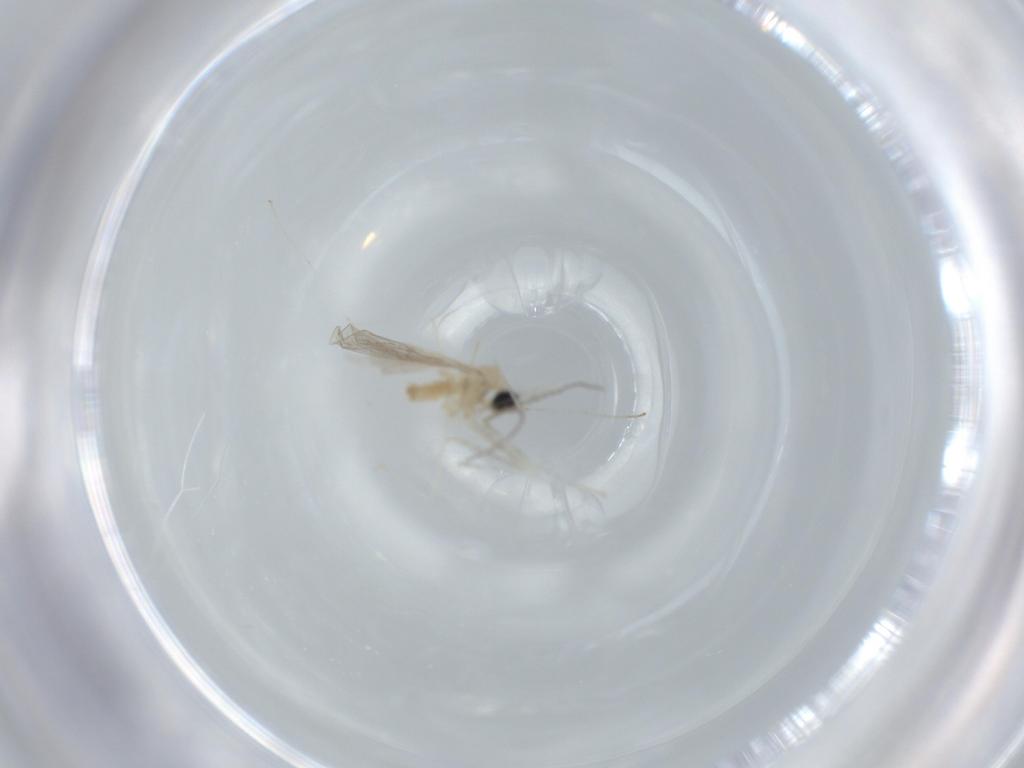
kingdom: Animalia
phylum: Arthropoda
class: Insecta
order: Diptera
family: Cecidomyiidae
